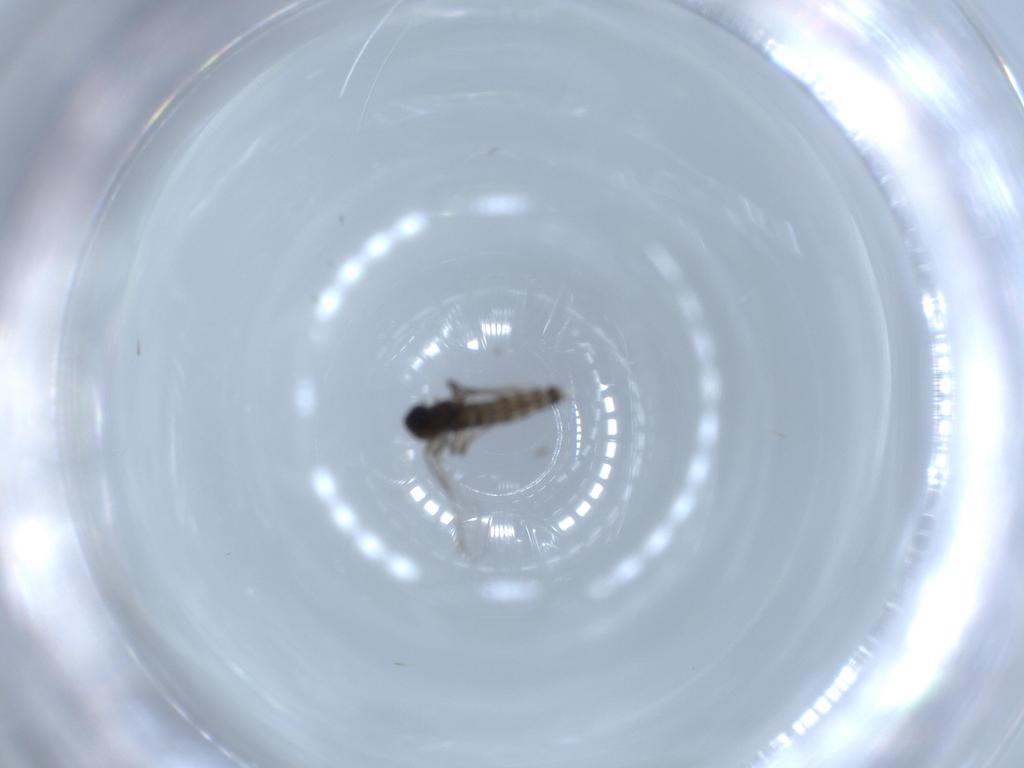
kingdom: Animalia
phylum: Arthropoda
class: Insecta
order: Diptera
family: Chironomidae
